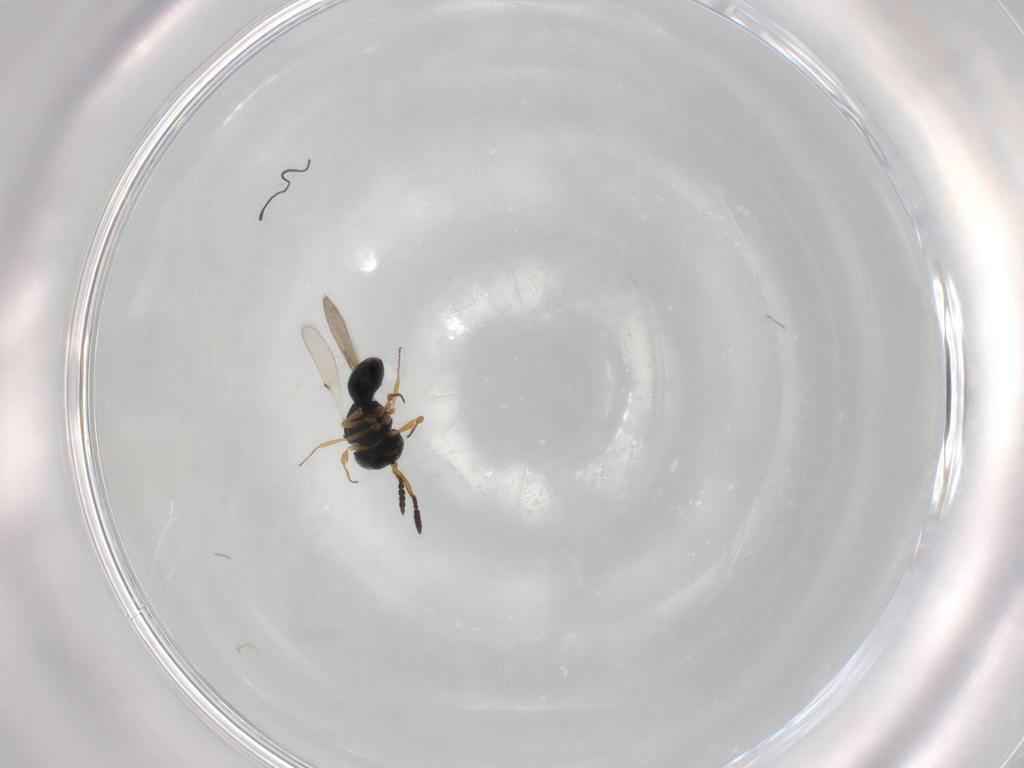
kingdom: Animalia
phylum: Arthropoda
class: Insecta
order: Hymenoptera
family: Scelionidae
